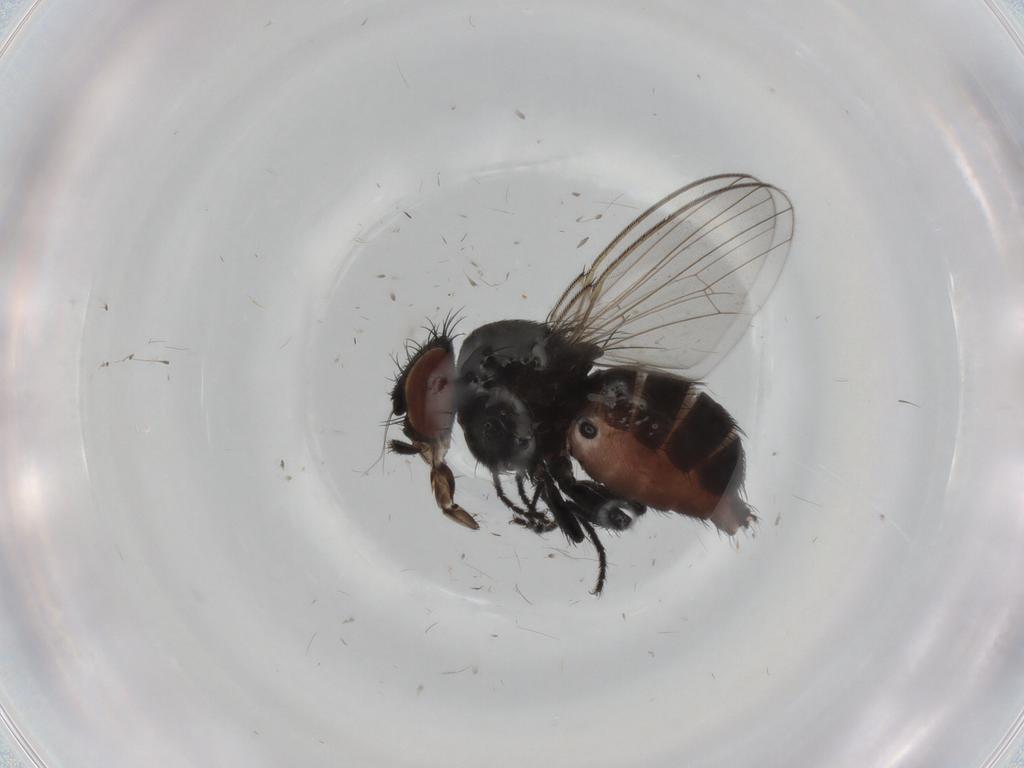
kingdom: Animalia
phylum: Arthropoda
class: Insecta
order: Diptera
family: Milichiidae
